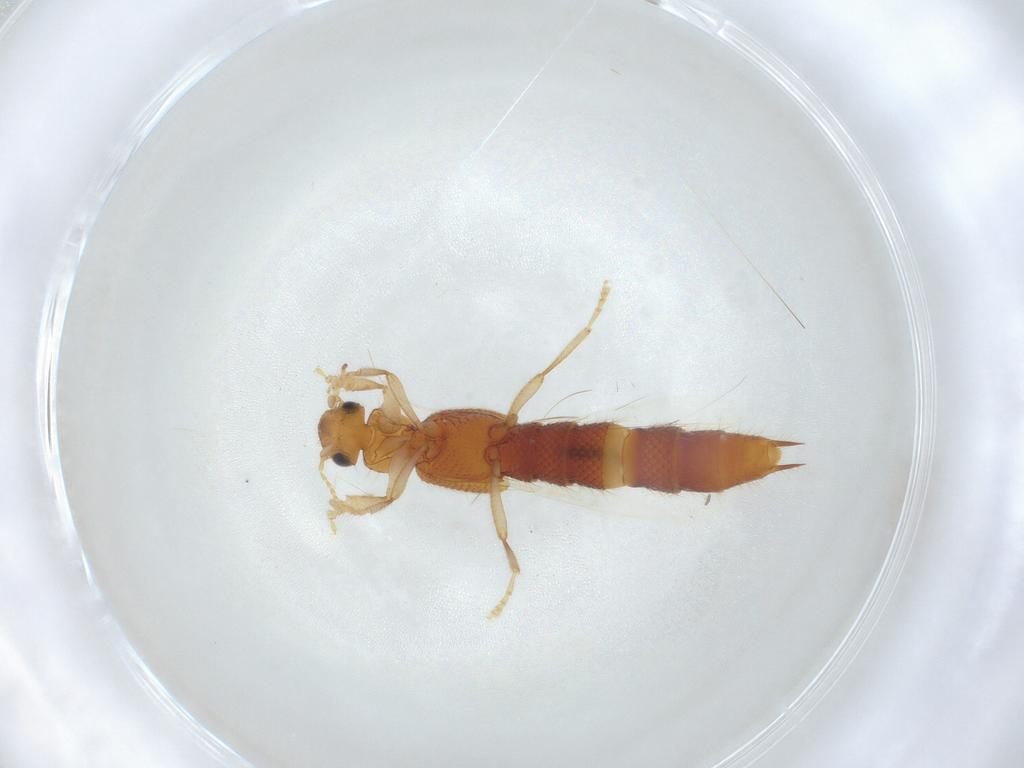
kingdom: Animalia
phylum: Arthropoda
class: Insecta
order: Coleoptera
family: Staphylinidae
